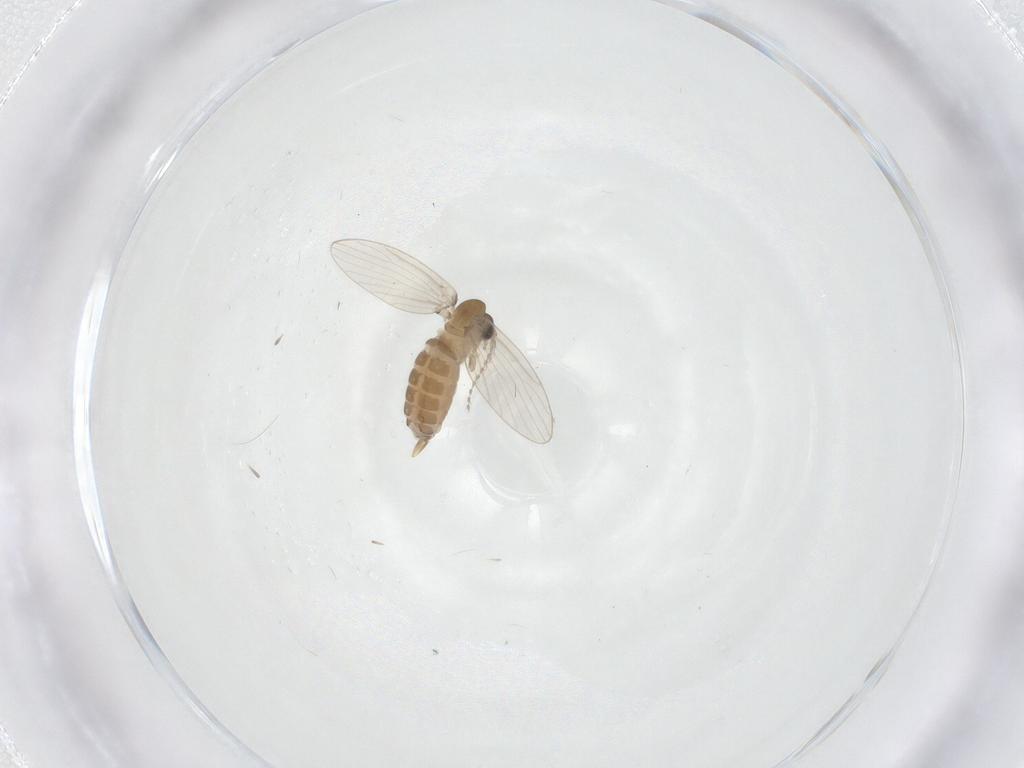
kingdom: Animalia
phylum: Arthropoda
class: Insecta
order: Diptera
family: Psychodidae
